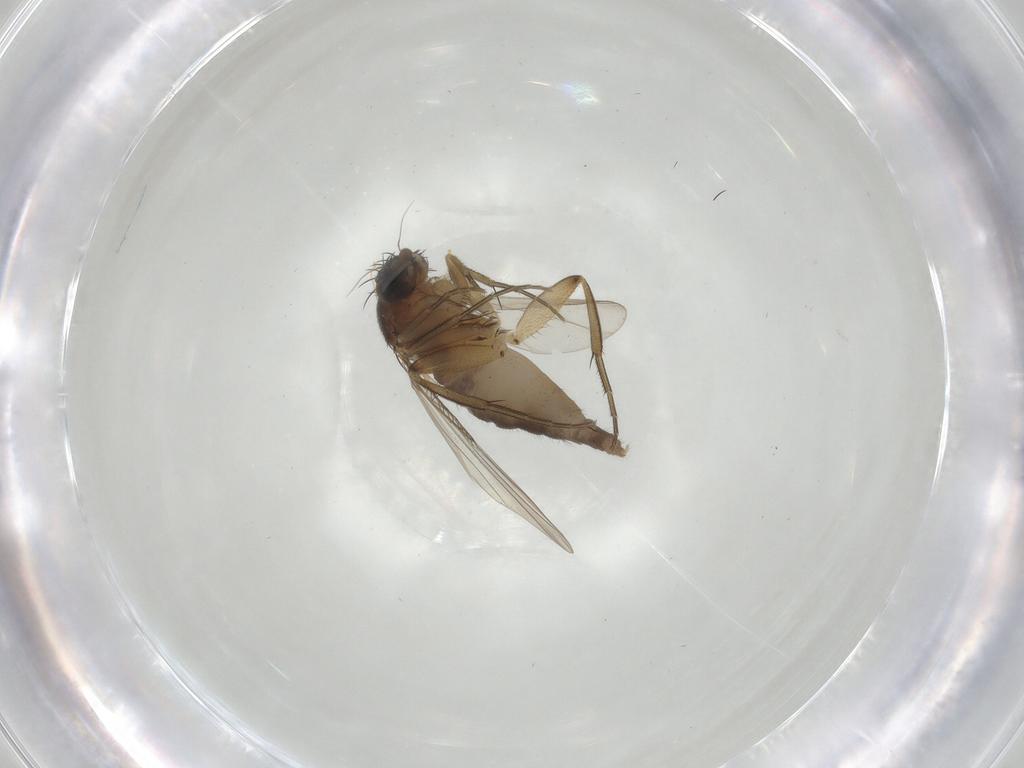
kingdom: Animalia
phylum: Arthropoda
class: Insecta
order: Diptera
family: Phoridae
